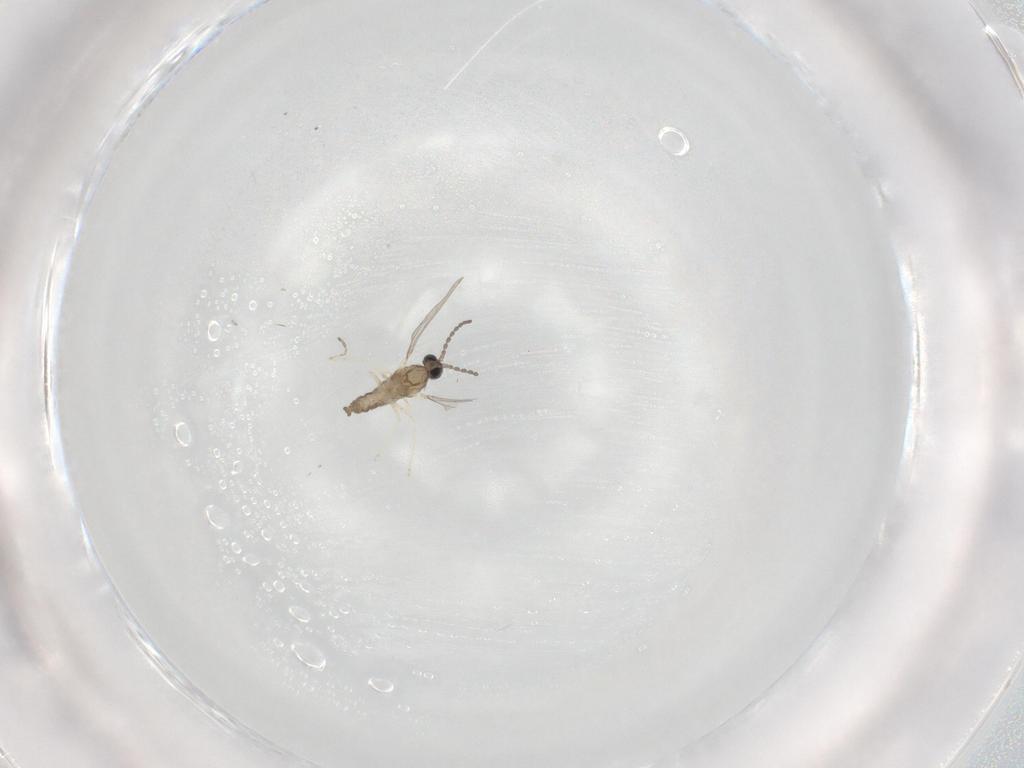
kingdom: Animalia
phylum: Arthropoda
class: Insecta
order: Diptera
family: Cecidomyiidae
